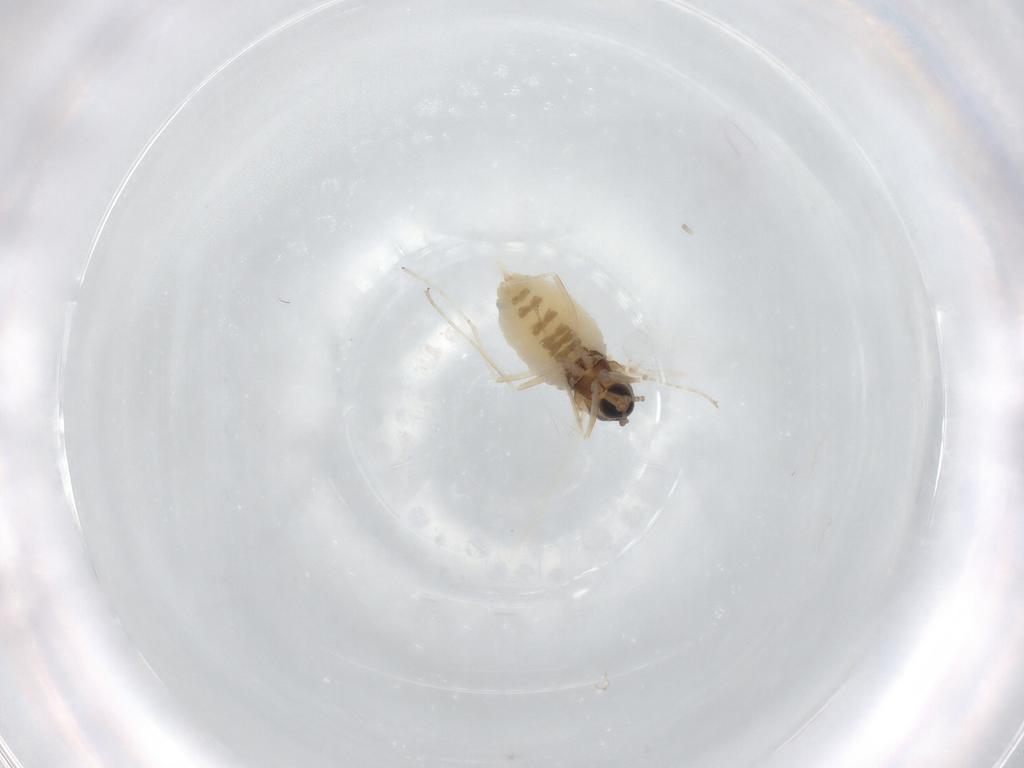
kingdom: Animalia
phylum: Arthropoda
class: Insecta
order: Diptera
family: Cecidomyiidae
